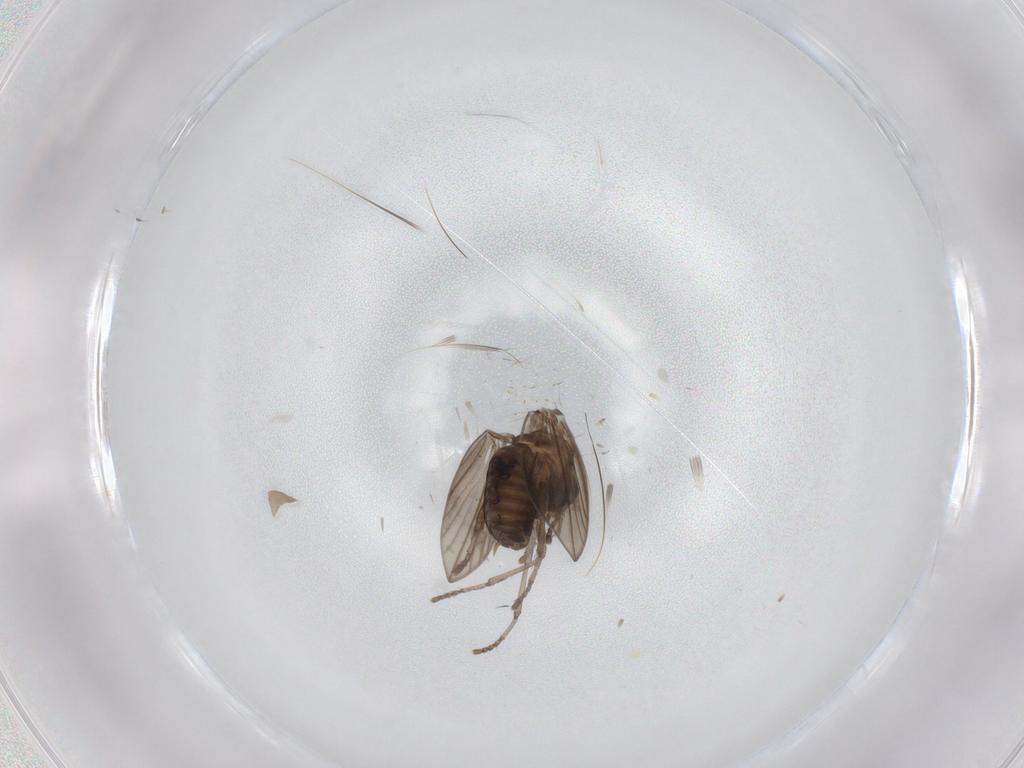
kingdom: Animalia
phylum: Arthropoda
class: Insecta
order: Diptera
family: Psychodidae
